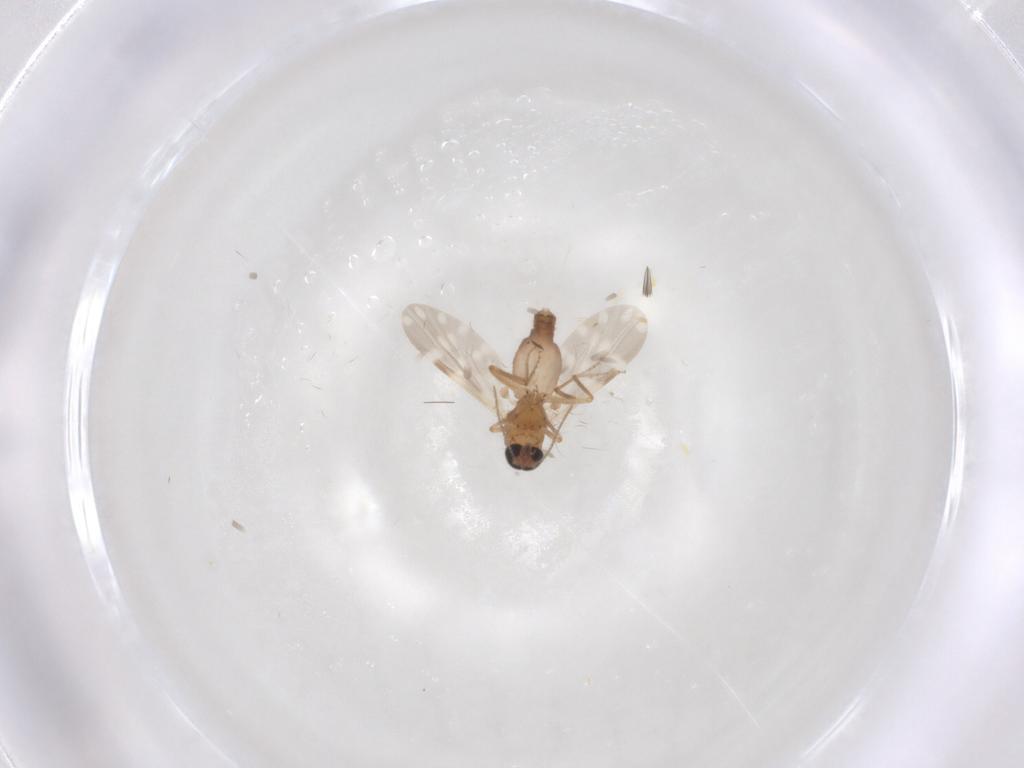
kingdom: Animalia
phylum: Arthropoda
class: Insecta
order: Diptera
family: Ceratopogonidae
